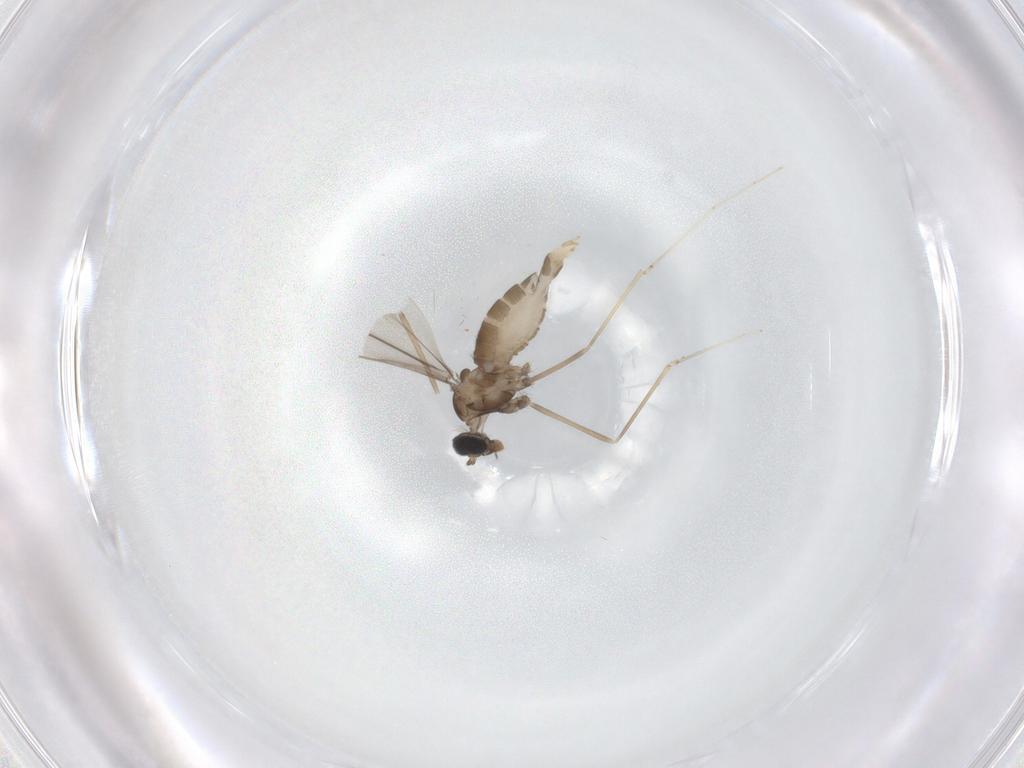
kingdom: Animalia
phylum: Arthropoda
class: Insecta
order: Diptera
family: Cecidomyiidae
